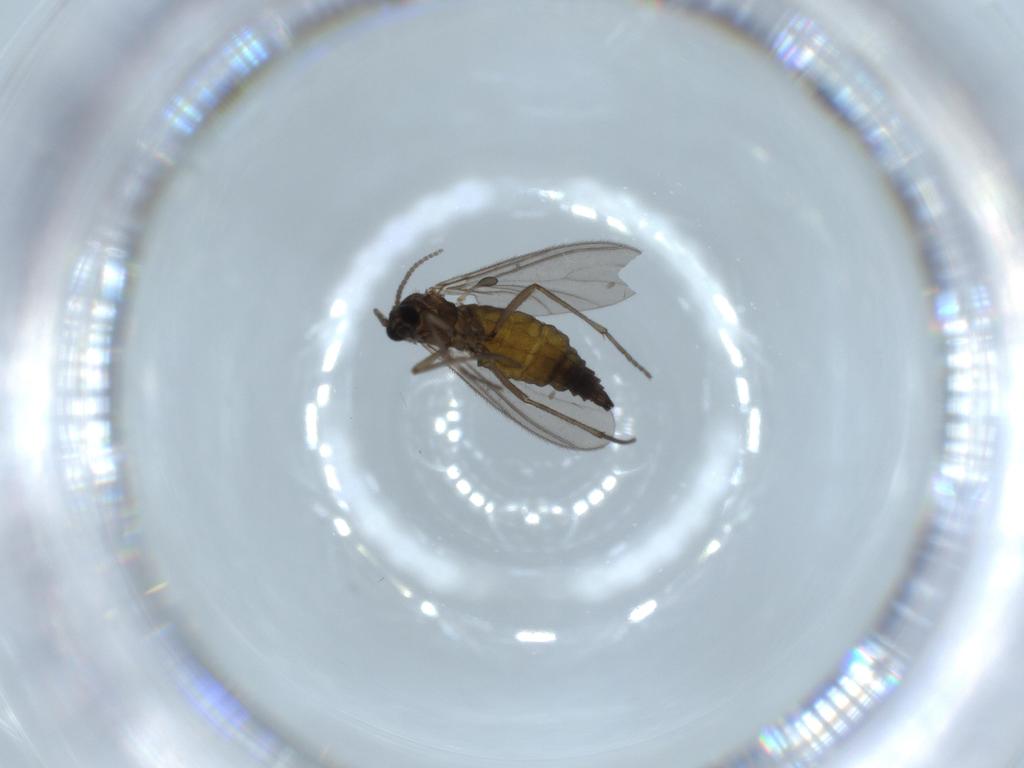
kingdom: Animalia
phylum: Arthropoda
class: Insecta
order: Diptera
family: Sciaridae
